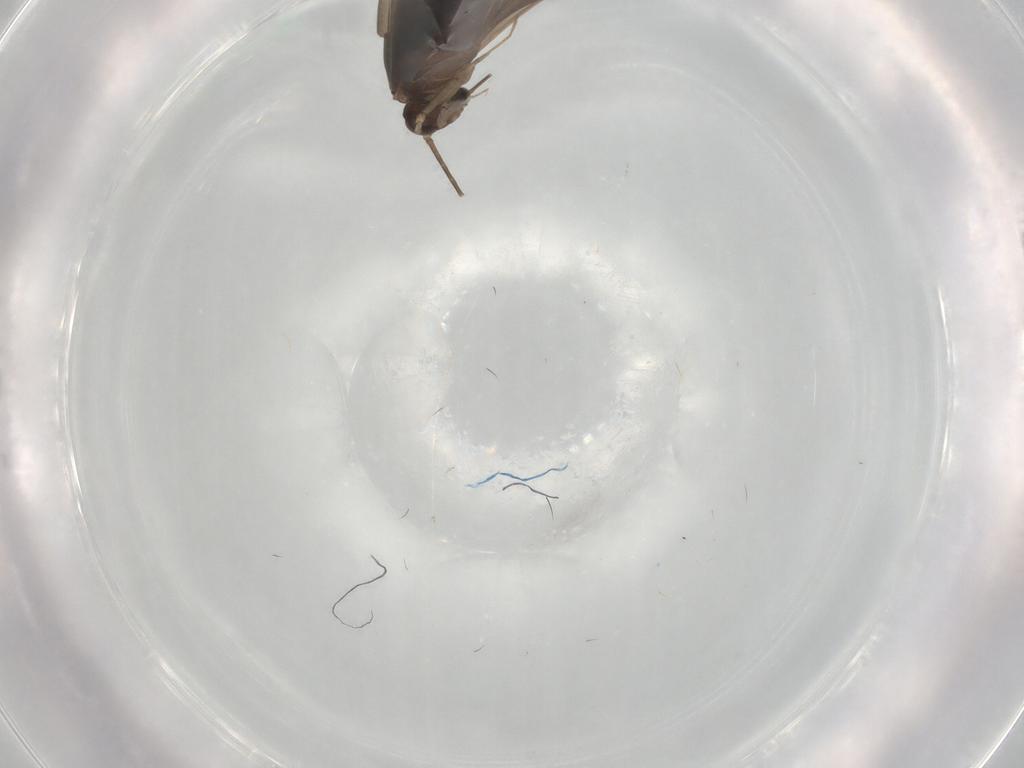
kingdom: Animalia
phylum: Arthropoda
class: Insecta
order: Trichoptera
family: Xiphocentronidae
